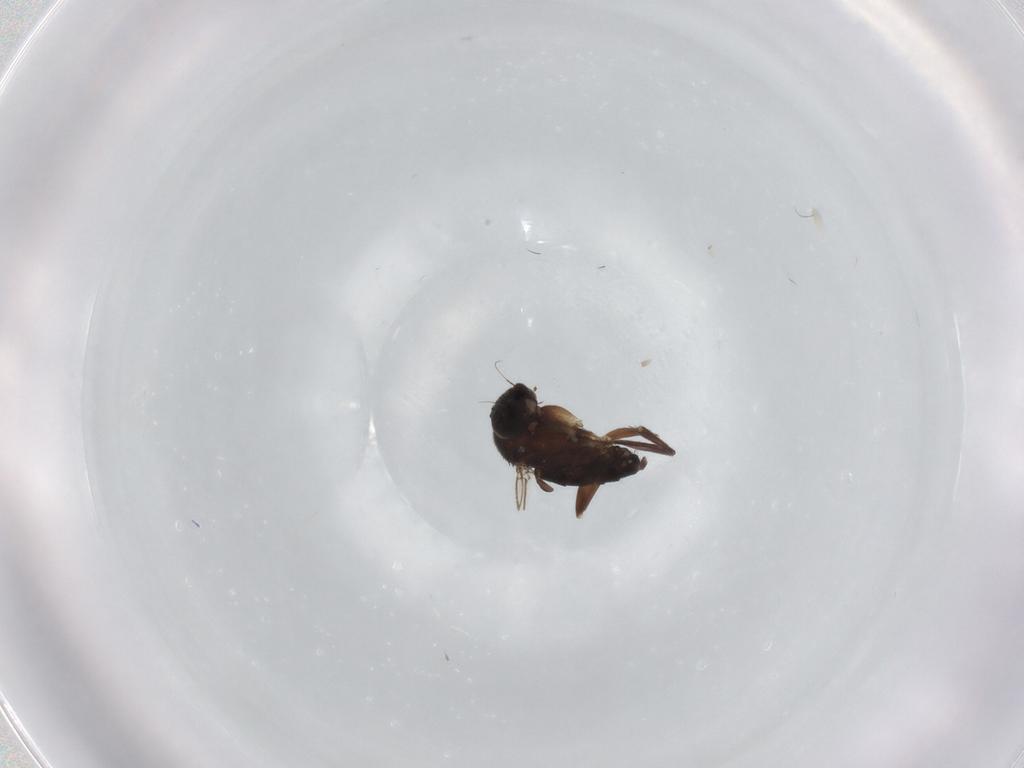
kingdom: Animalia
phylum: Arthropoda
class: Insecta
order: Diptera
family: Phoridae
